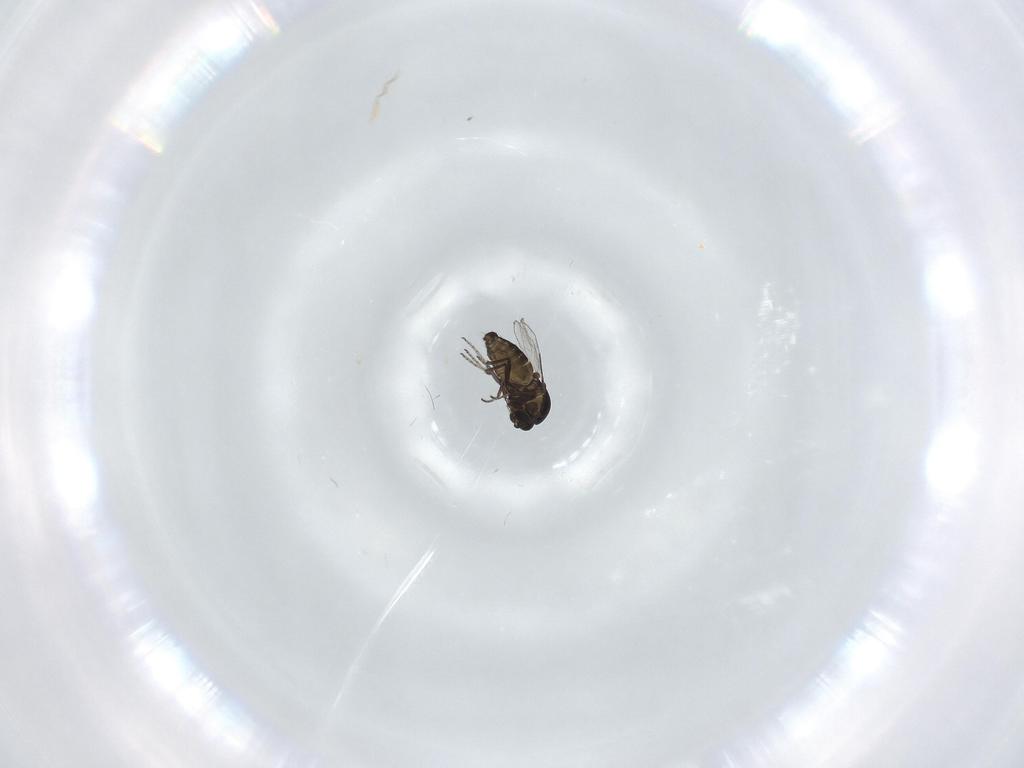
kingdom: Animalia
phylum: Arthropoda
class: Insecta
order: Diptera
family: Ceratopogonidae
